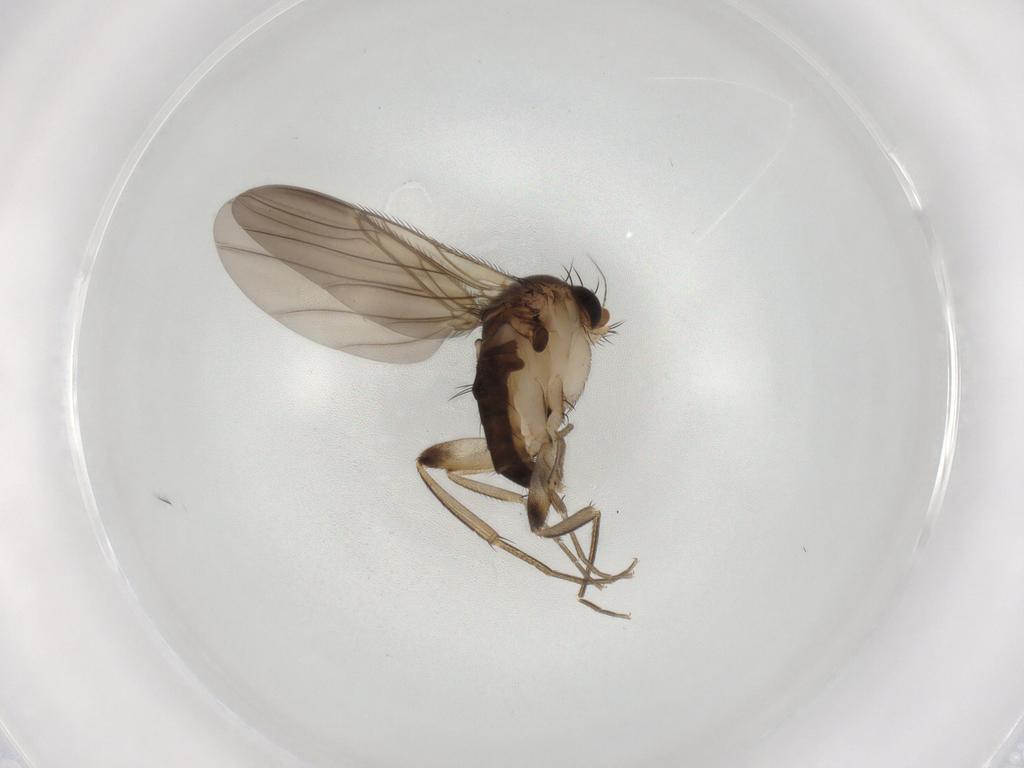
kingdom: Animalia
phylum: Arthropoda
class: Insecta
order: Diptera
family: Phoridae
